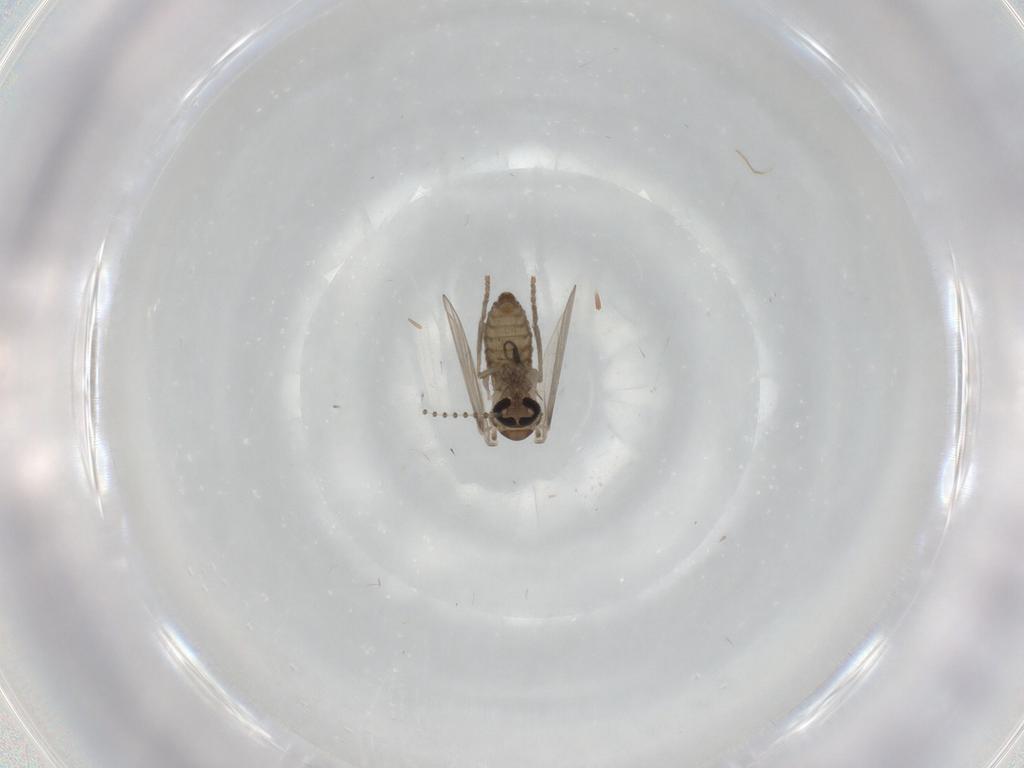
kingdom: Animalia
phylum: Arthropoda
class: Insecta
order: Diptera
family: Psychodidae
